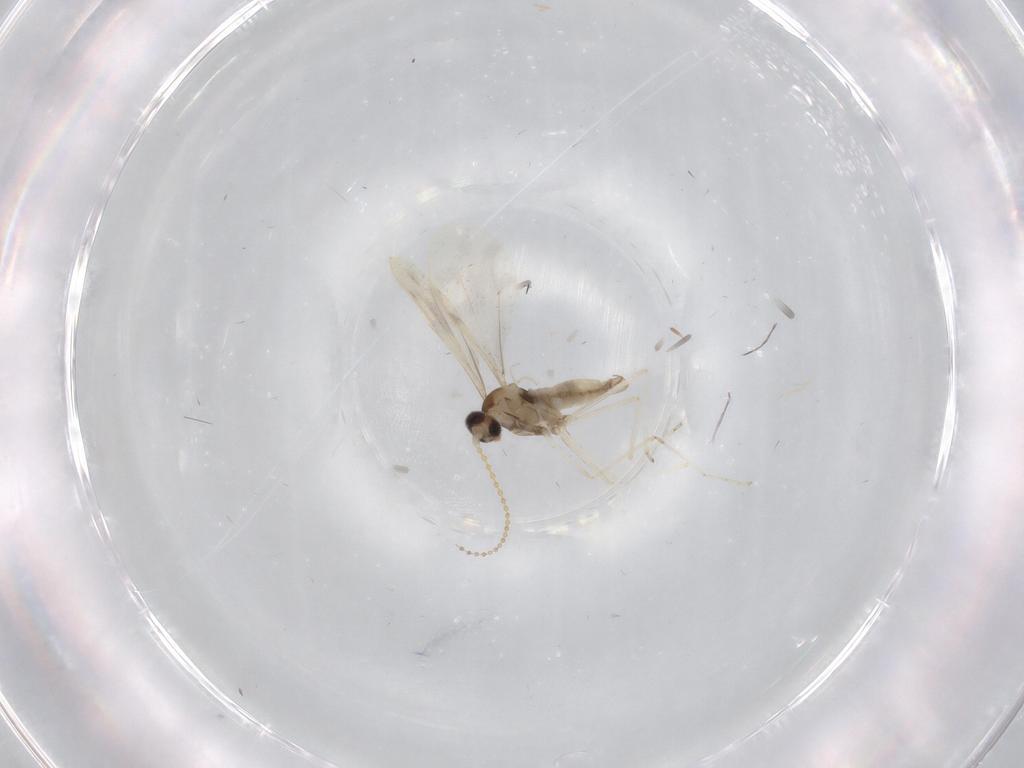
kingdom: Animalia
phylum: Arthropoda
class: Insecta
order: Diptera
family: Cecidomyiidae
